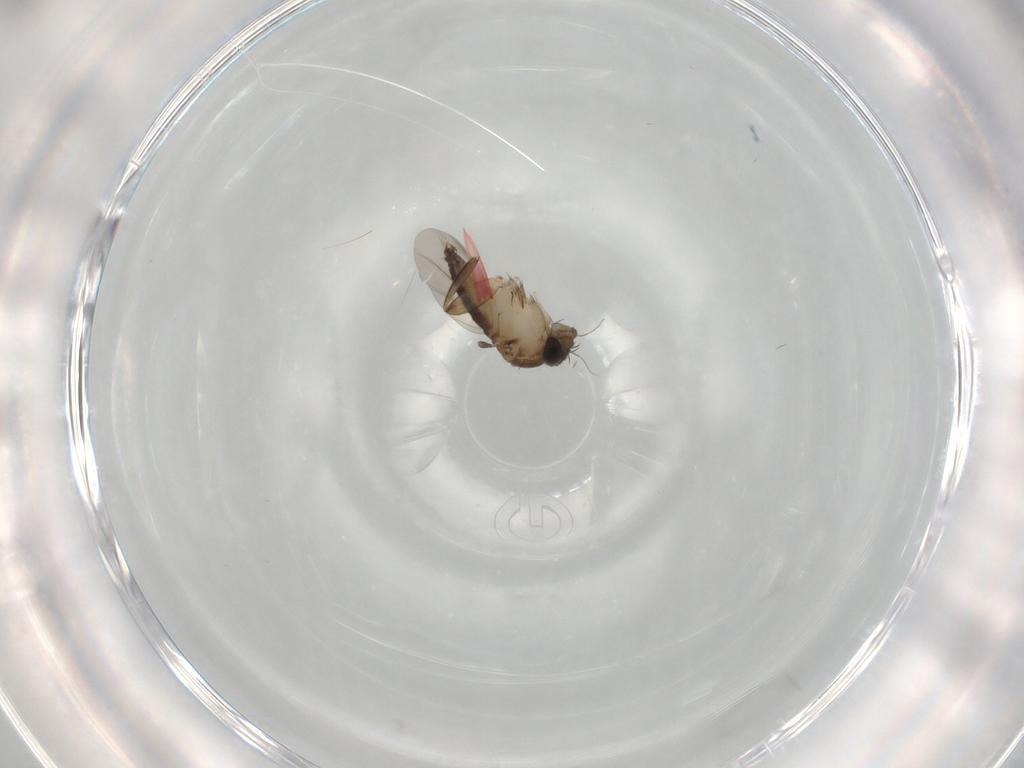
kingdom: Animalia
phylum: Arthropoda
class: Insecta
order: Diptera
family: Phoridae
